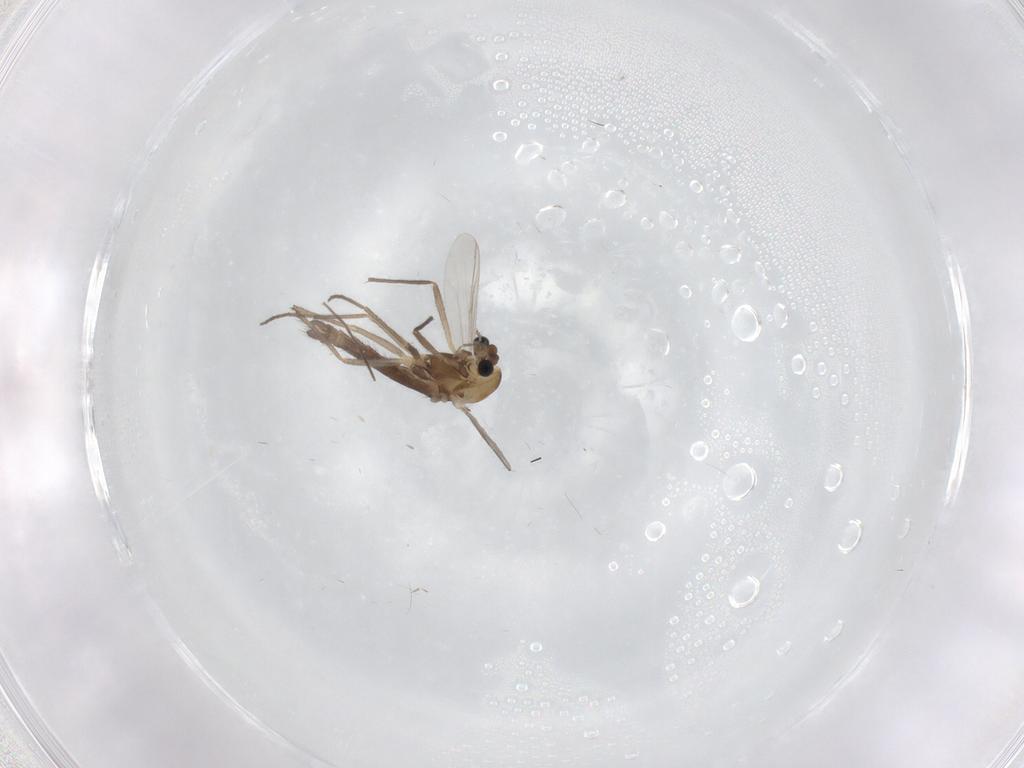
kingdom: Animalia
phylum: Arthropoda
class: Insecta
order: Diptera
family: Chironomidae
